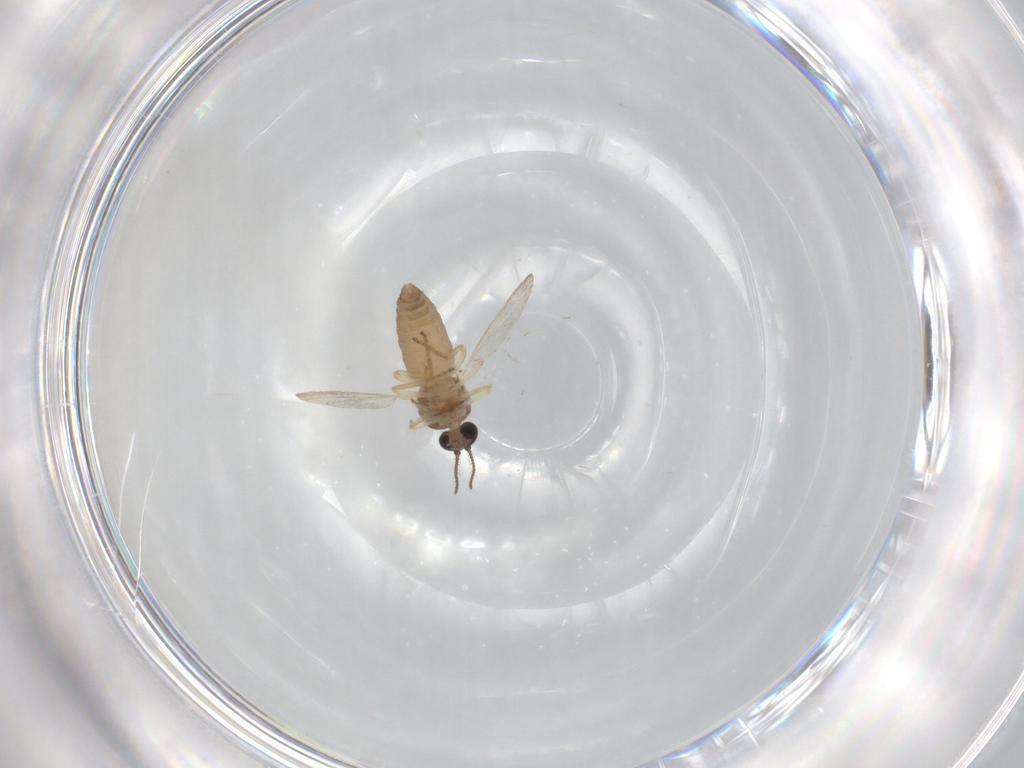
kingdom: Animalia
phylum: Arthropoda
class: Insecta
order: Diptera
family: Ceratopogonidae
